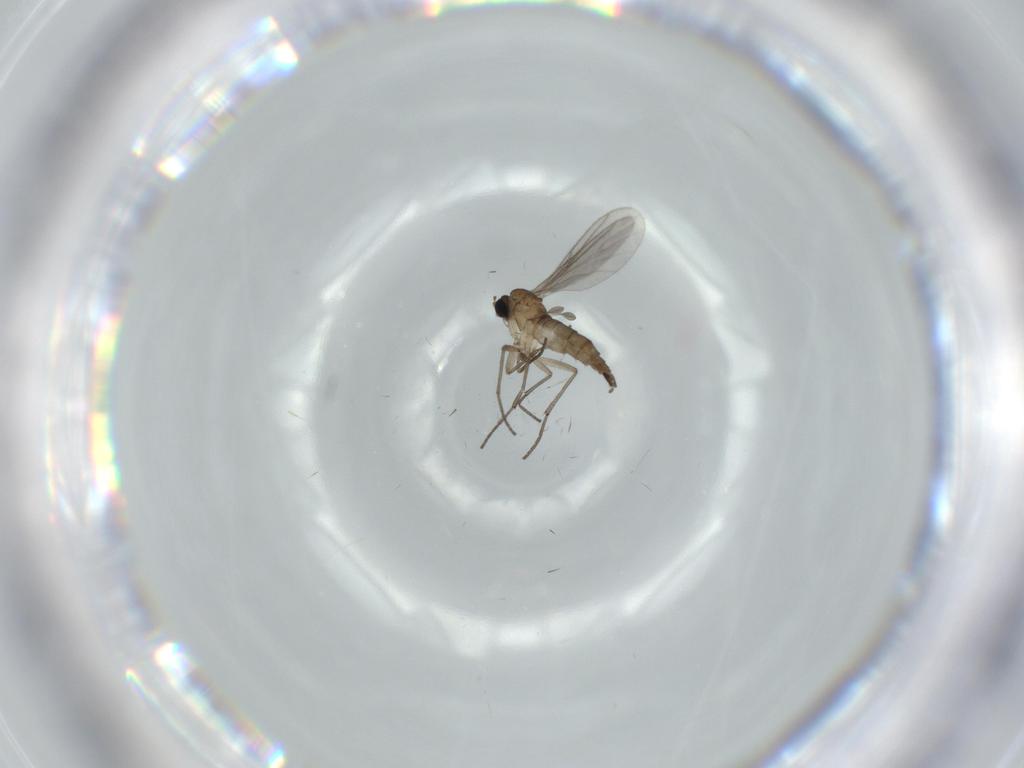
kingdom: Animalia
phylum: Arthropoda
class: Insecta
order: Diptera
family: Sciaridae
